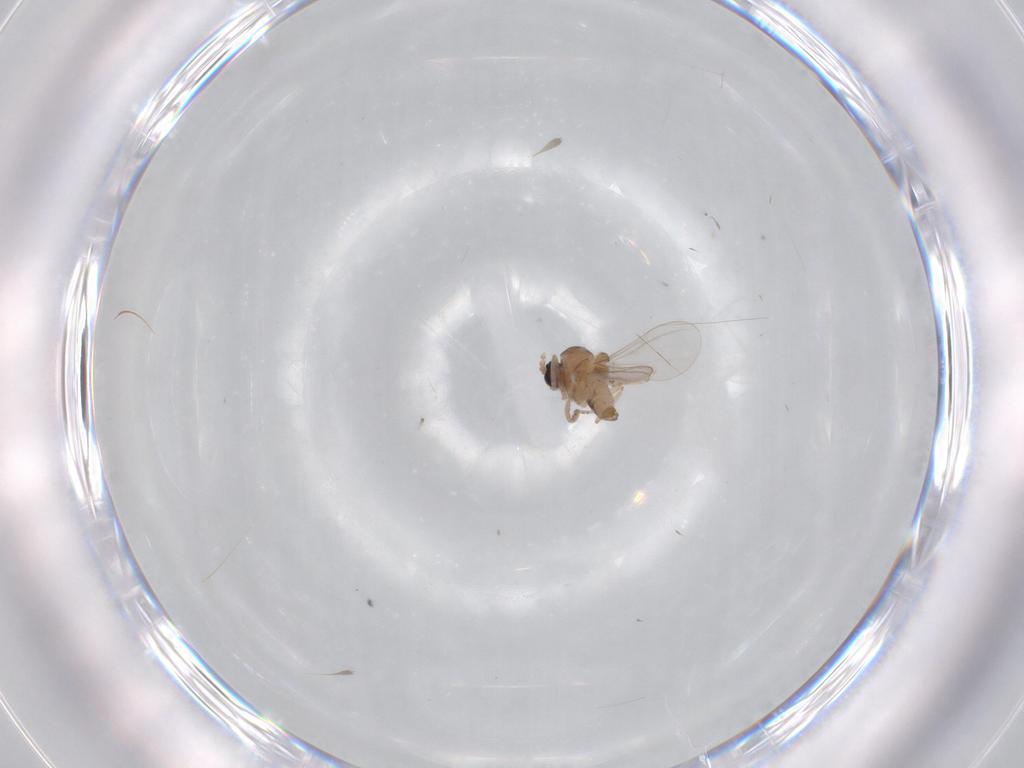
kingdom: Animalia
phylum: Arthropoda
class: Insecta
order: Diptera
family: Cecidomyiidae
